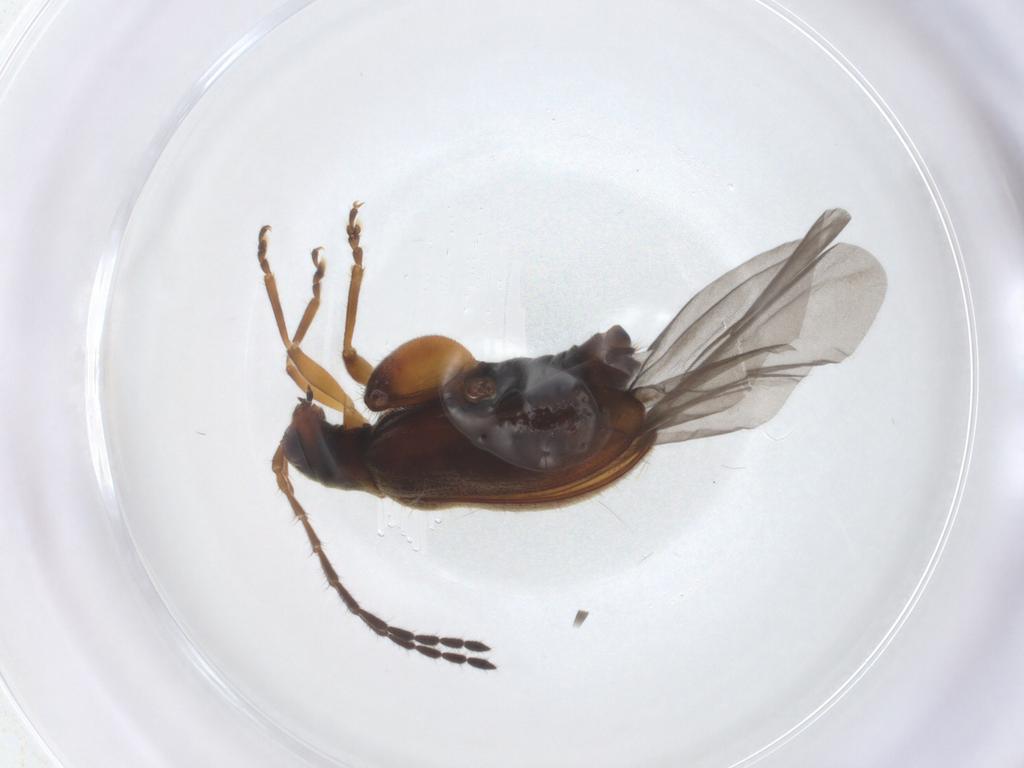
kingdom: Animalia
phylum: Arthropoda
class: Insecta
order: Coleoptera
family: Chrysomelidae
